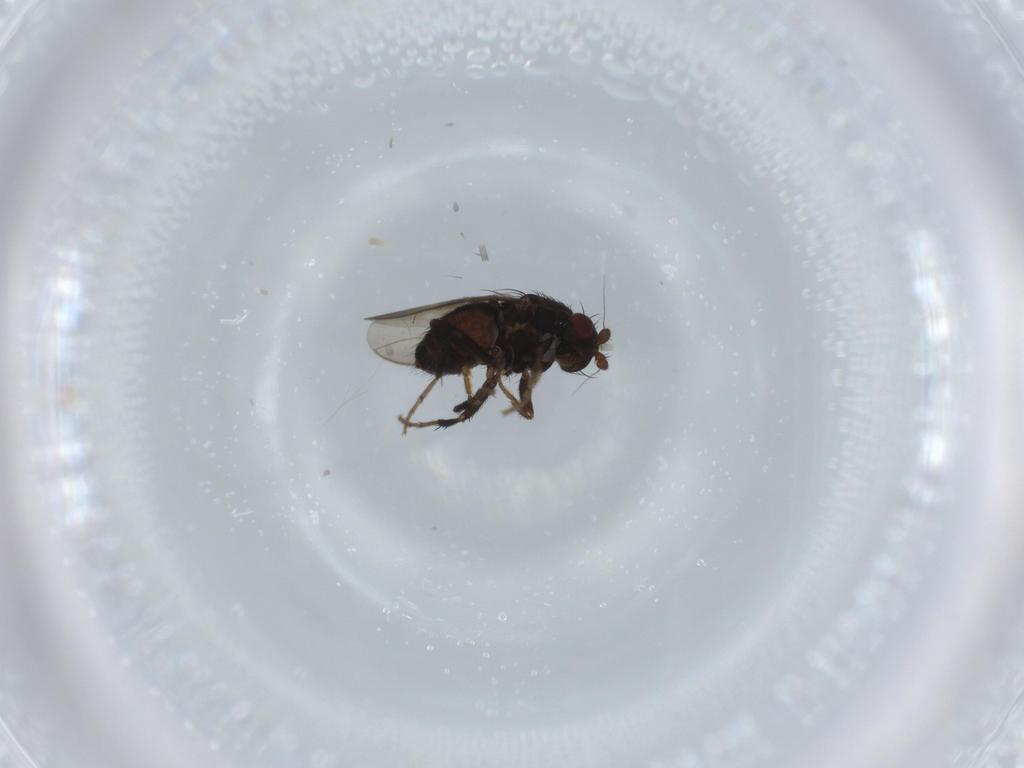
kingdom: Animalia
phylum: Arthropoda
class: Insecta
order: Diptera
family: Sphaeroceridae
